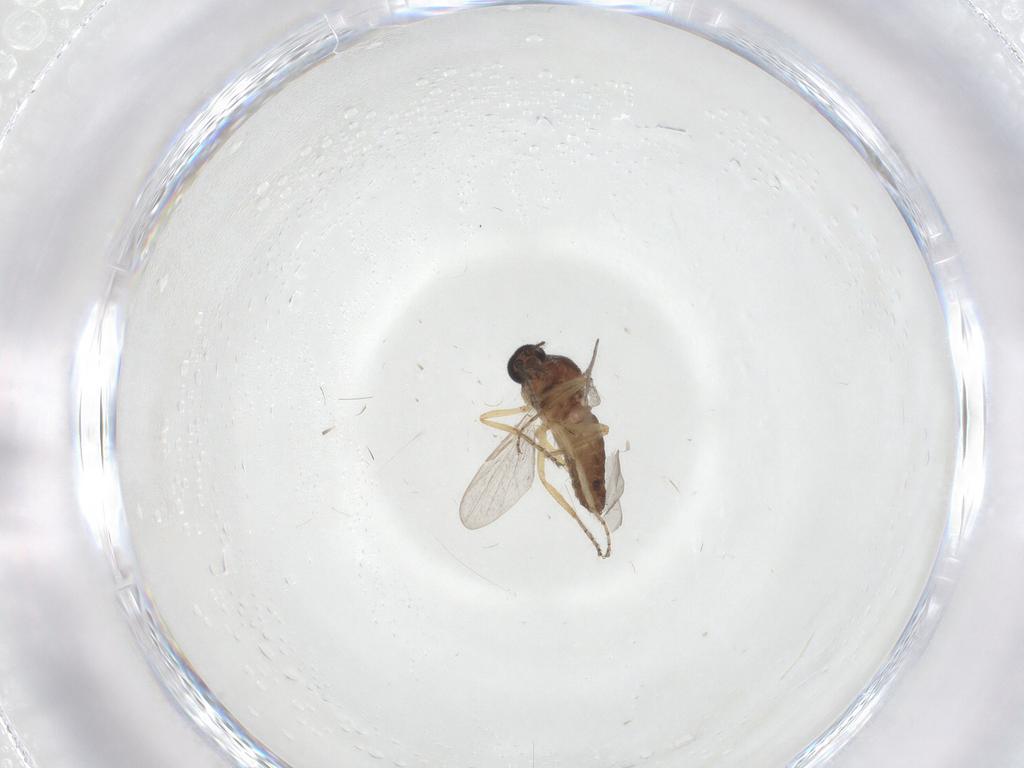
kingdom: Animalia
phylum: Arthropoda
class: Insecta
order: Diptera
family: Ceratopogonidae
